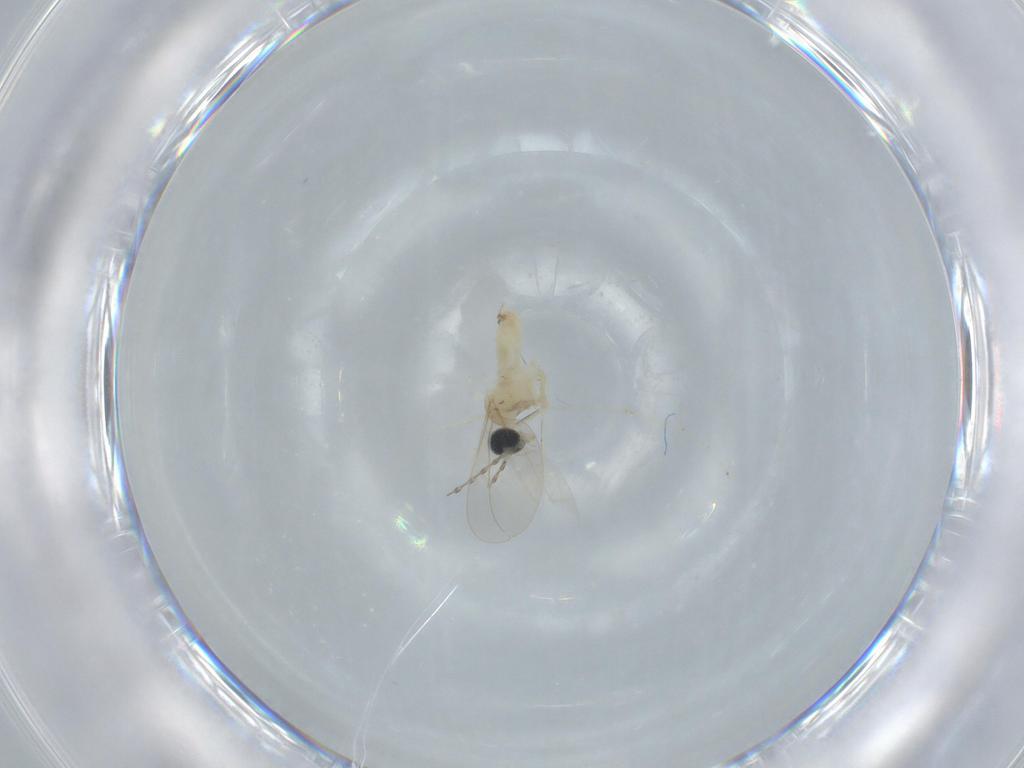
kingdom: Animalia
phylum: Arthropoda
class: Insecta
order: Diptera
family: Cecidomyiidae
